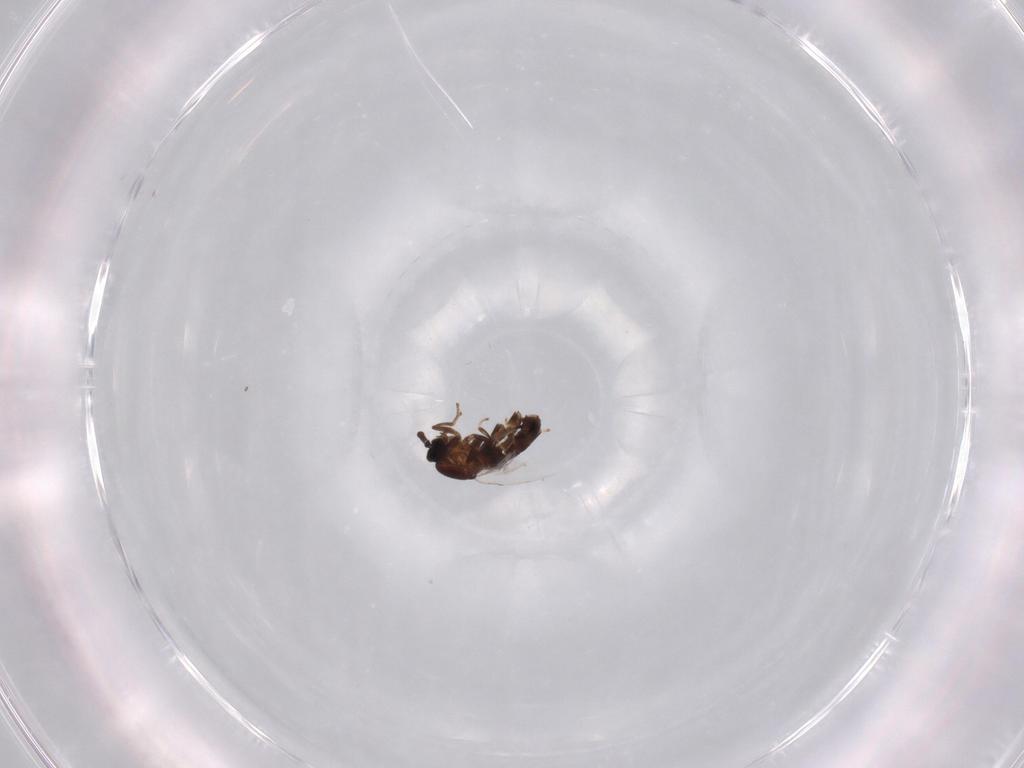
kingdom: Animalia
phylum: Arthropoda
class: Insecta
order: Diptera
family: Scatopsidae
